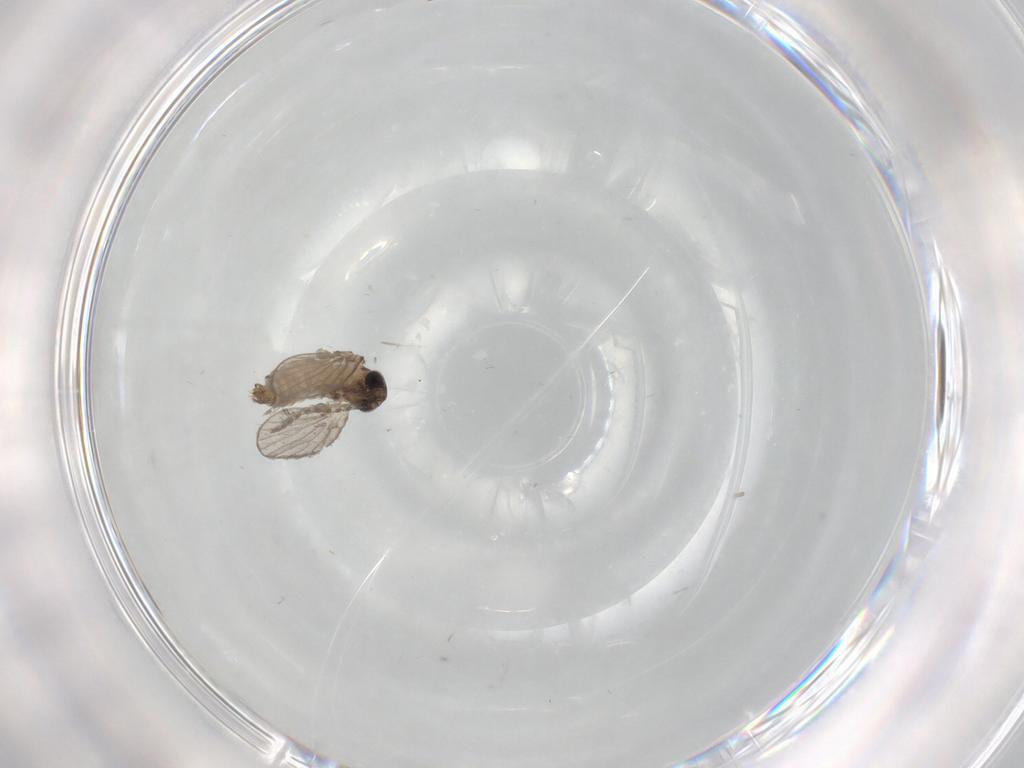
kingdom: Animalia
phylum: Arthropoda
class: Insecta
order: Diptera
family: Psychodidae
